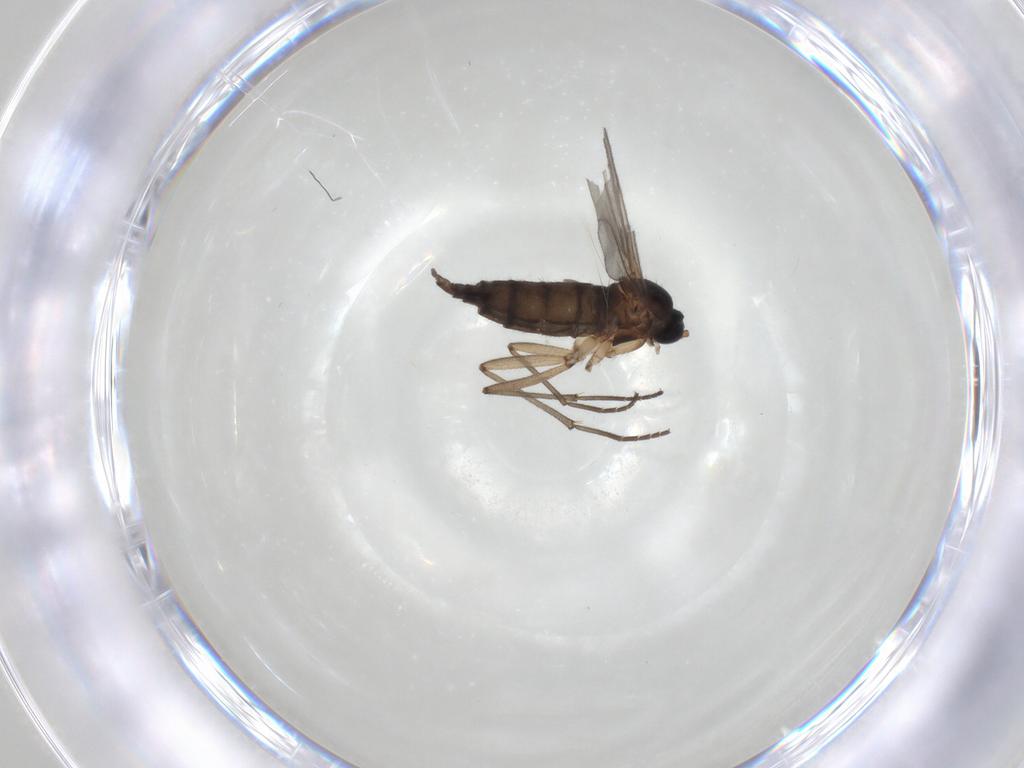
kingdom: Animalia
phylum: Arthropoda
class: Insecta
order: Diptera
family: Sciaridae
